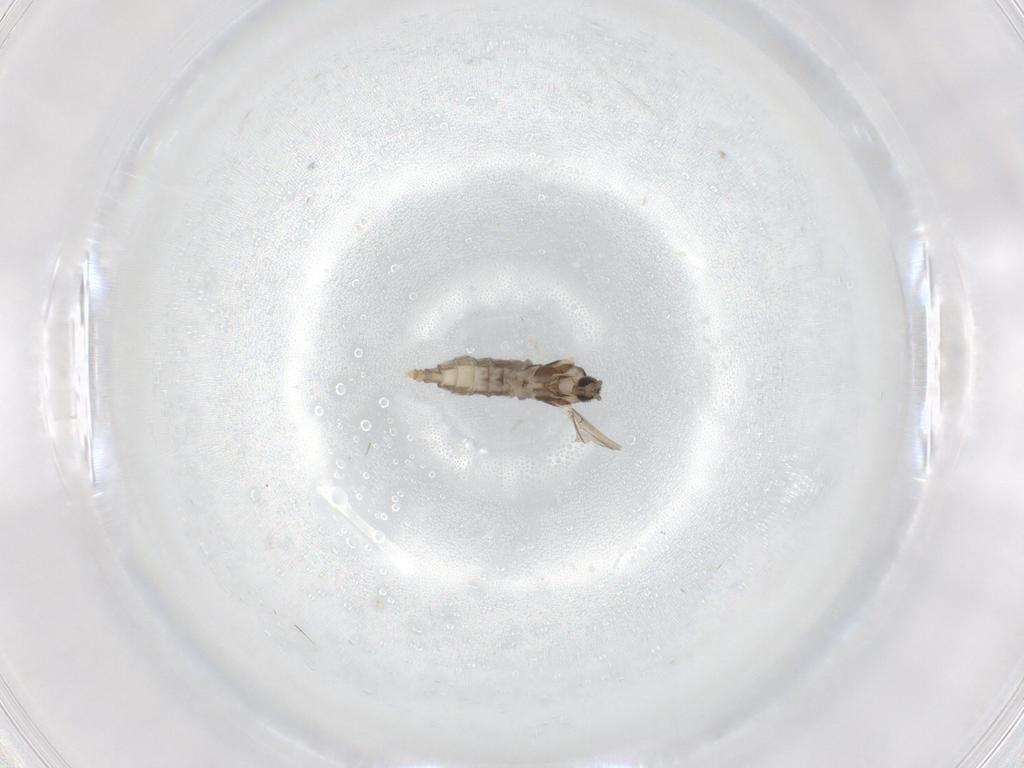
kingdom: Animalia
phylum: Arthropoda
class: Insecta
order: Diptera
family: Cecidomyiidae
